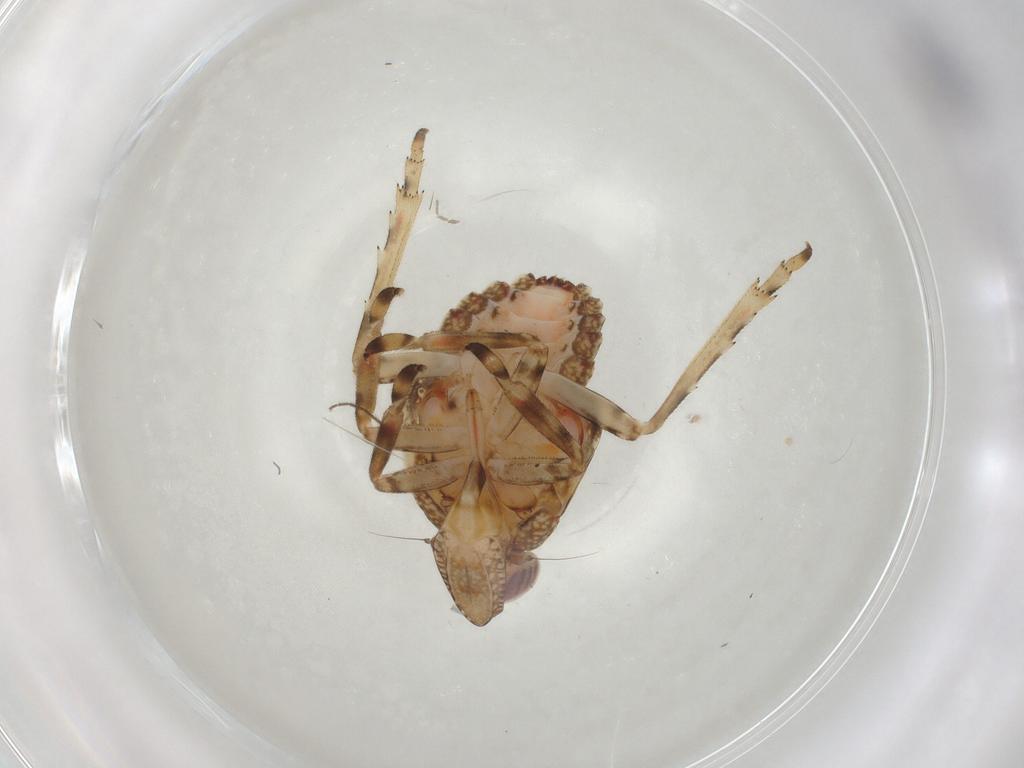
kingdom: Animalia
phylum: Arthropoda
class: Insecta
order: Hemiptera
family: Tropiduchidae
